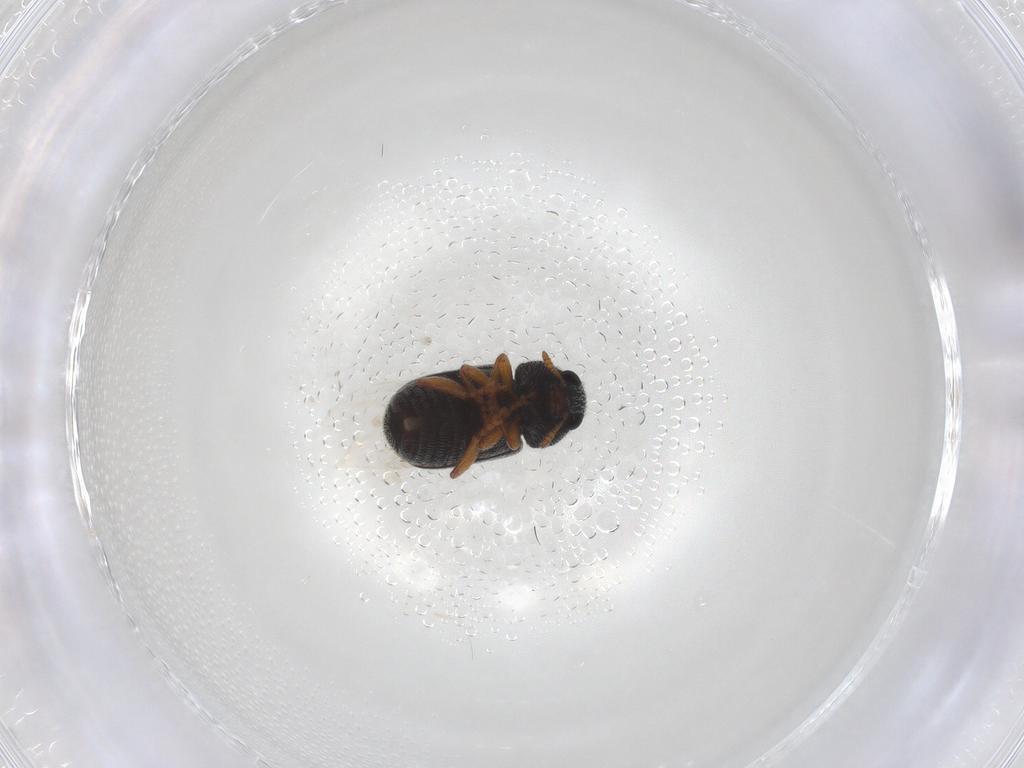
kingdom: Animalia
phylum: Arthropoda
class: Insecta
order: Coleoptera
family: Anthribidae
